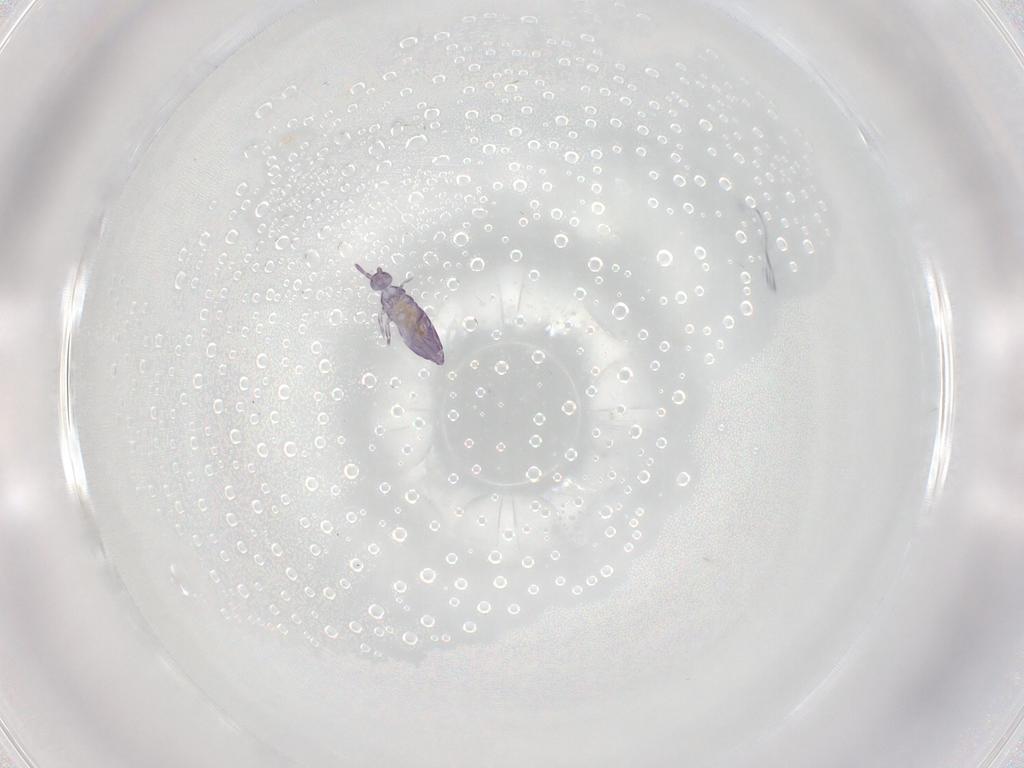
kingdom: Animalia
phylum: Arthropoda
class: Collembola
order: Entomobryomorpha
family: Entomobryidae
